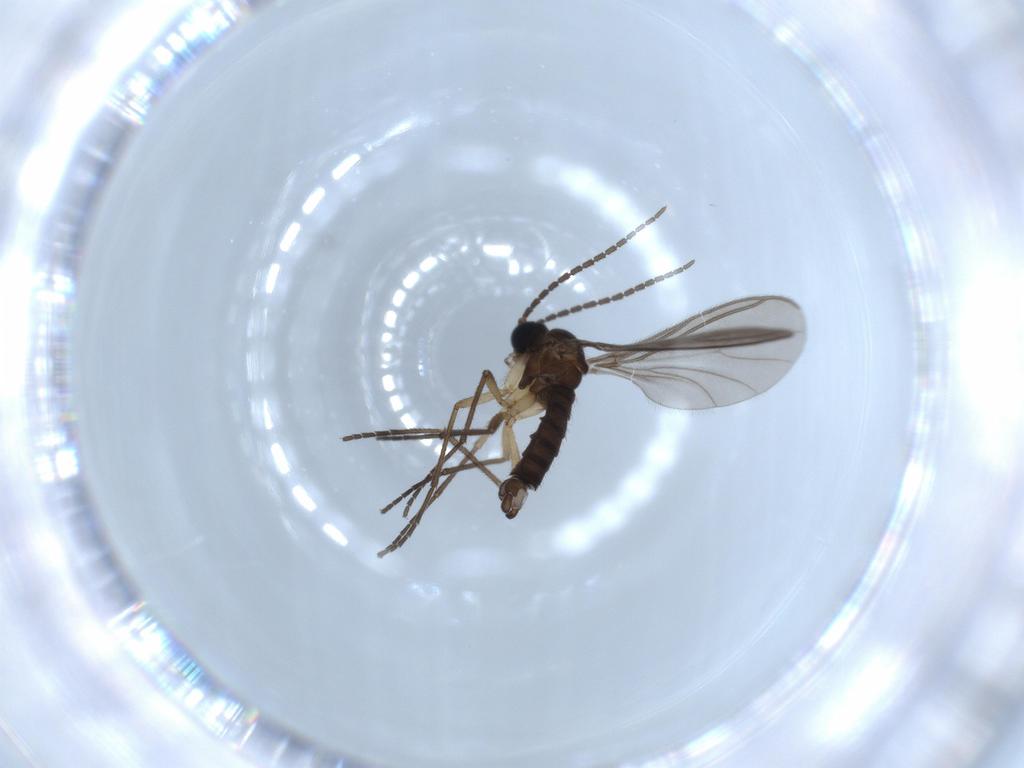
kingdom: Animalia
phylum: Arthropoda
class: Insecta
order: Diptera
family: Sciaridae
